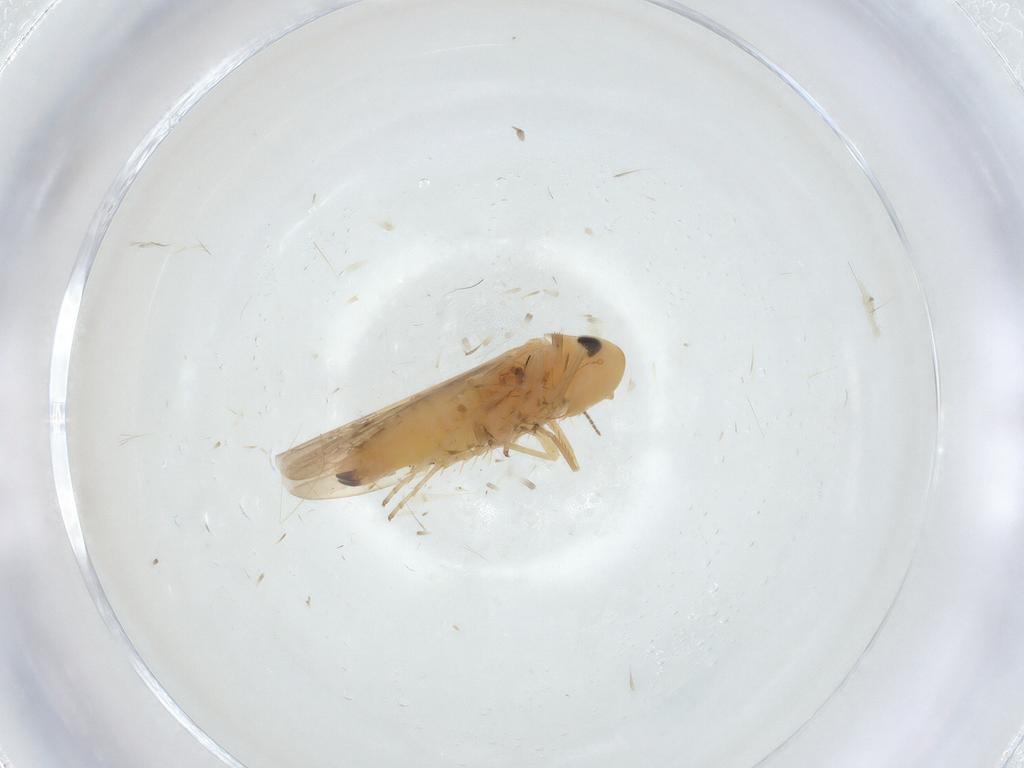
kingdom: Animalia
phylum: Arthropoda
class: Insecta
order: Hemiptera
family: Cicadellidae
